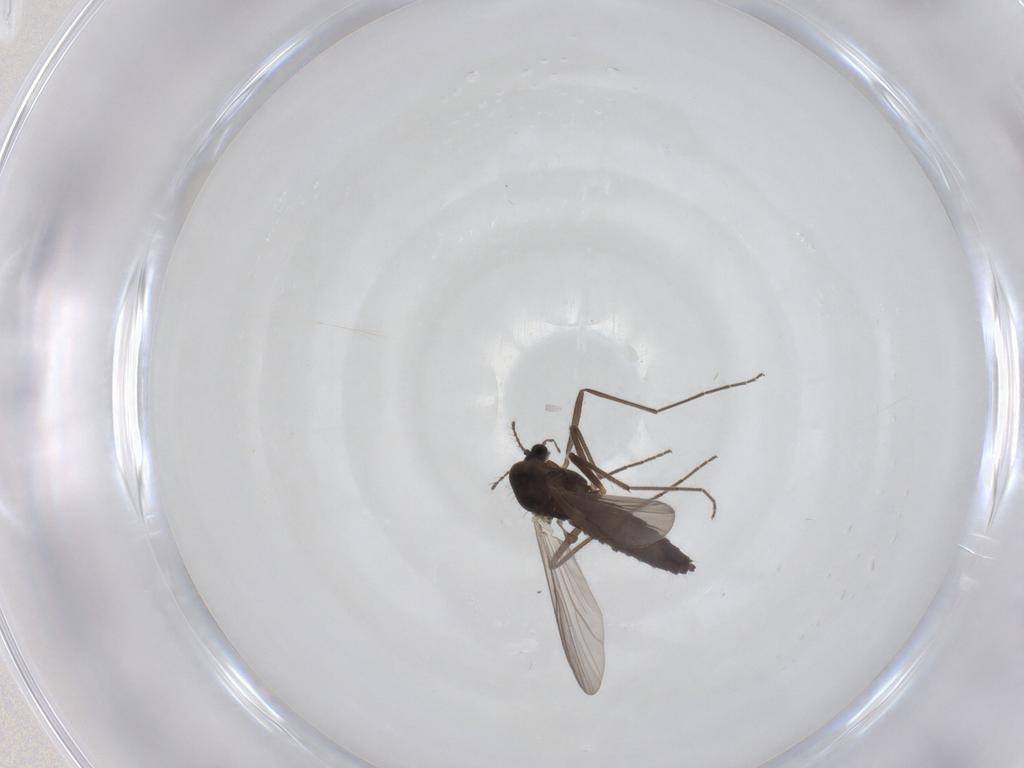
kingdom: Animalia
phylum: Arthropoda
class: Insecta
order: Diptera
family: Chironomidae
